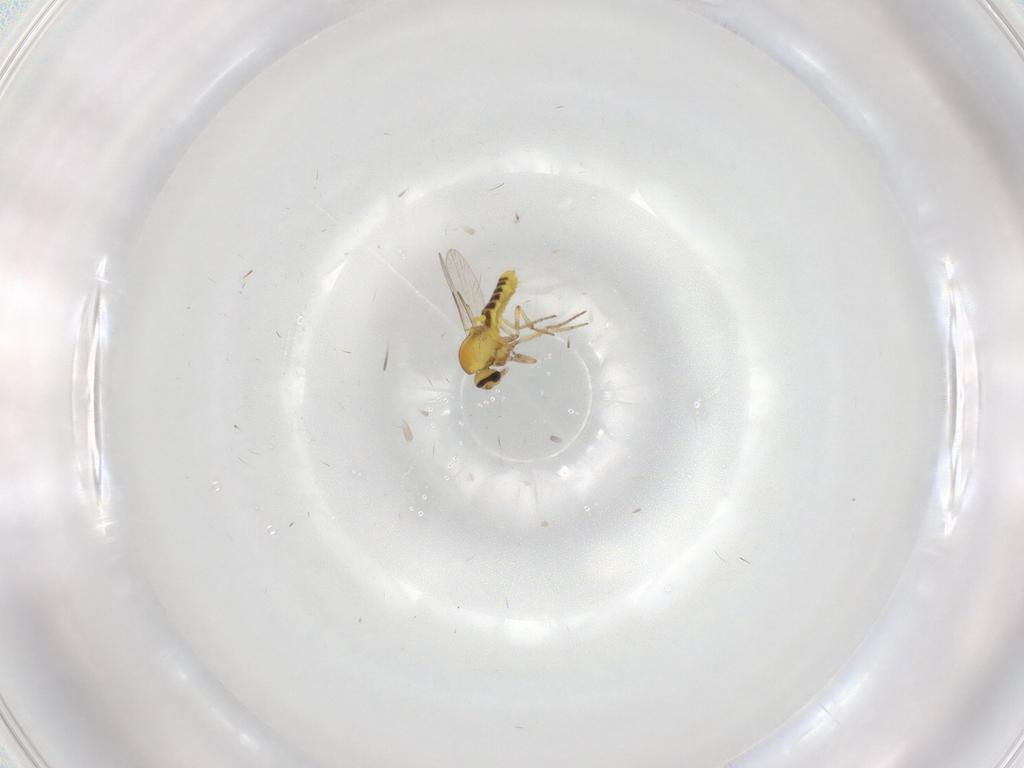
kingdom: Animalia
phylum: Arthropoda
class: Insecta
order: Diptera
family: Ceratopogonidae
